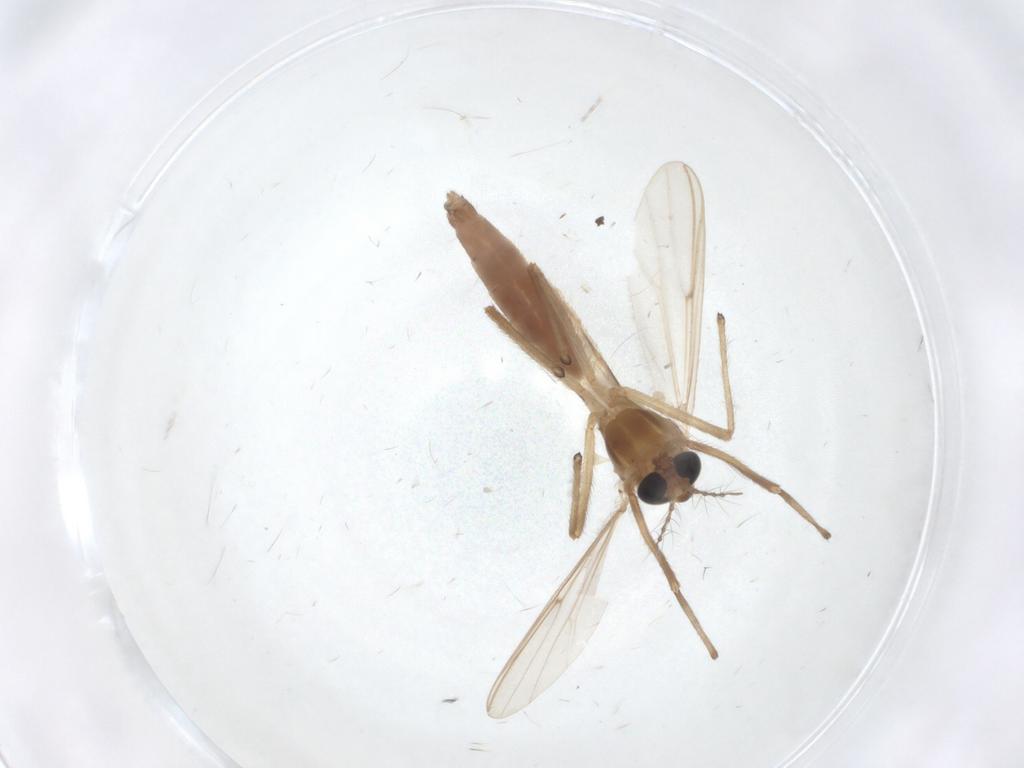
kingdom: Animalia
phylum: Arthropoda
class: Insecta
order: Diptera
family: Chironomidae
